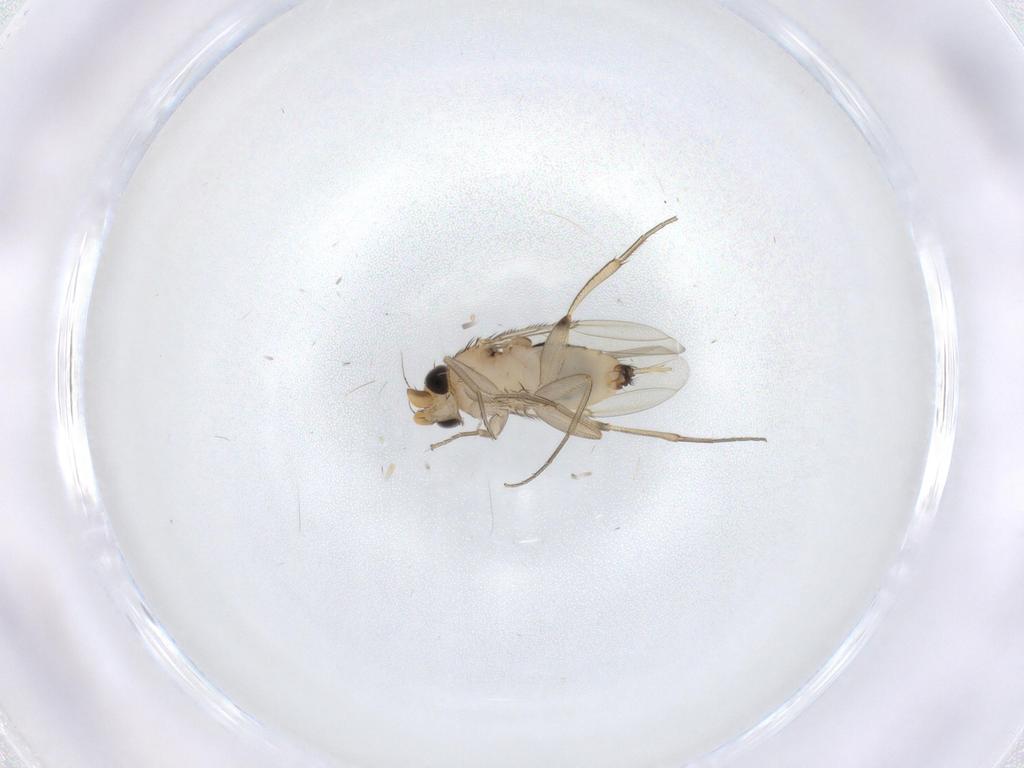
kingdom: Animalia
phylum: Arthropoda
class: Insecta
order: Diptera
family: Phoridae
